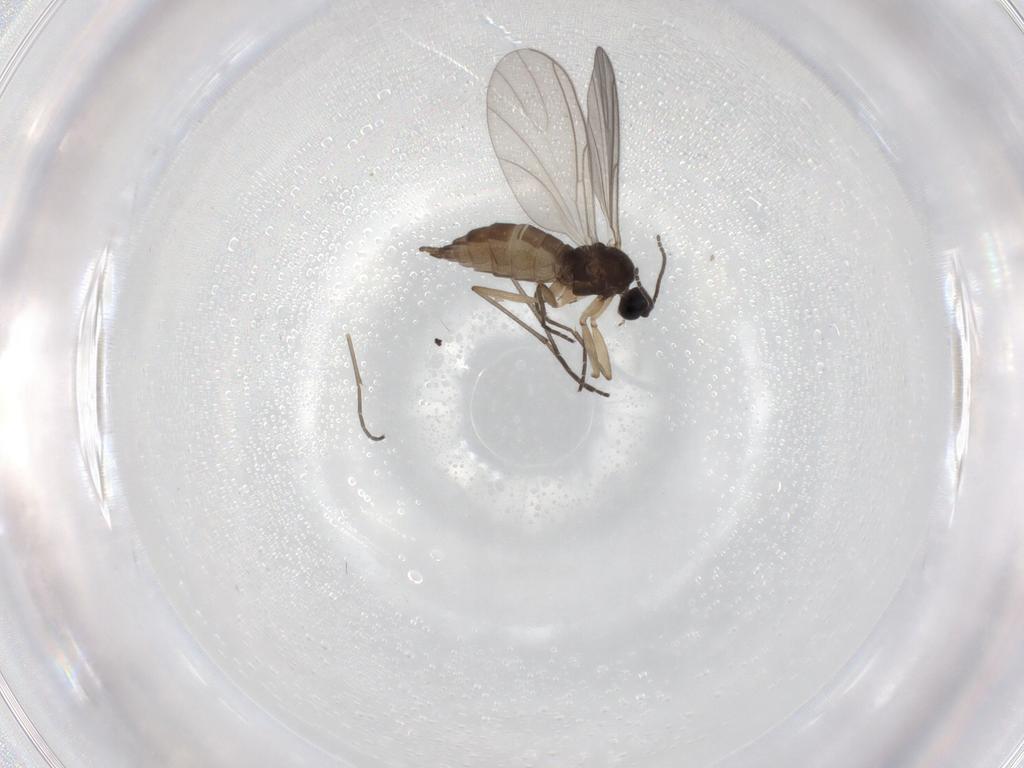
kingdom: Animalia
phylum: Arthropoda
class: Insecta
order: Diptera
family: Sciaridae
